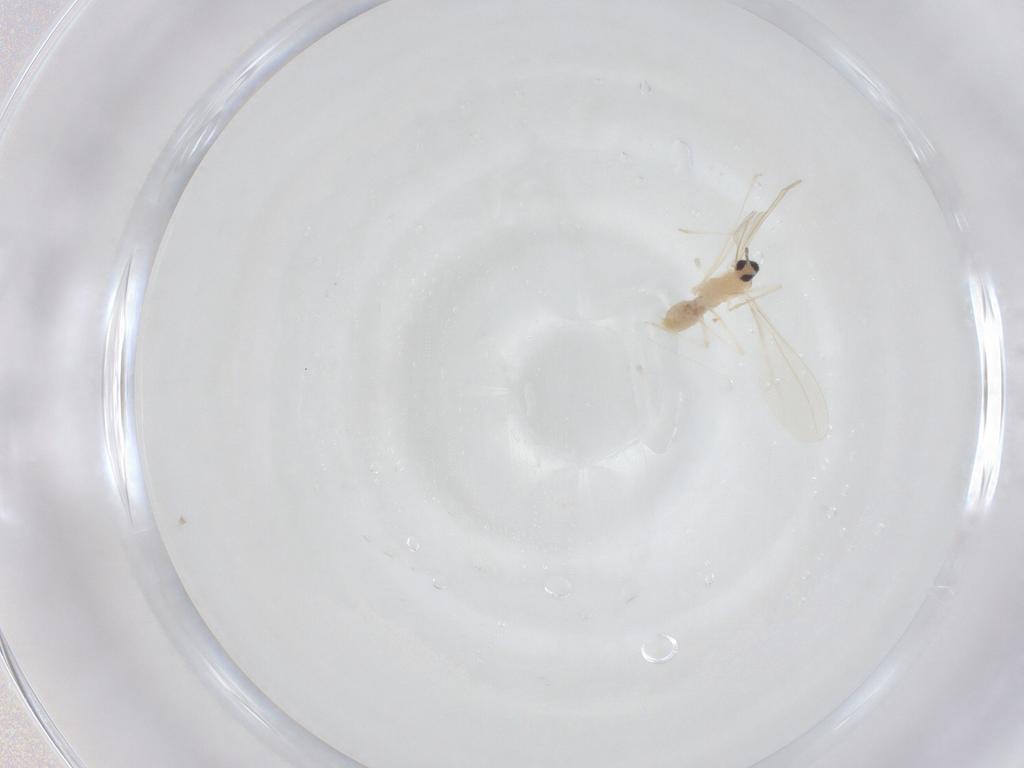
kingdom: Animalia
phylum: Arthropoda
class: Insecta
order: Diptera
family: Cecidomyiidae
